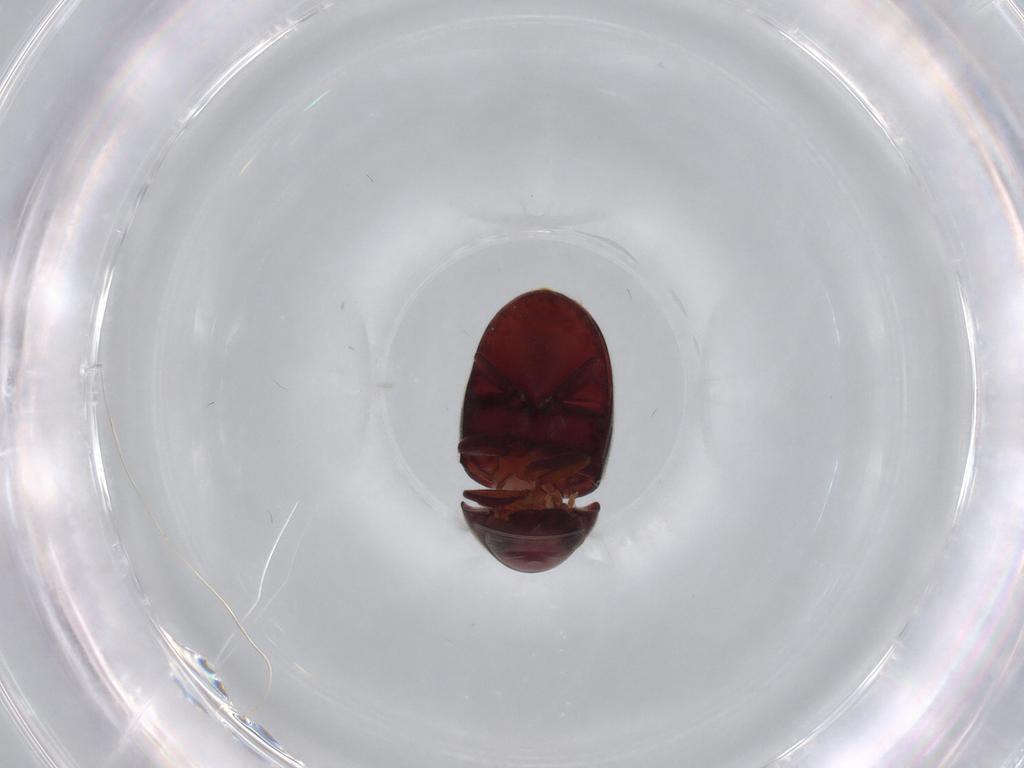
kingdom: Animalia
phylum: Arthropoda
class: Insecta
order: Coleoptera
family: Ptinidae
